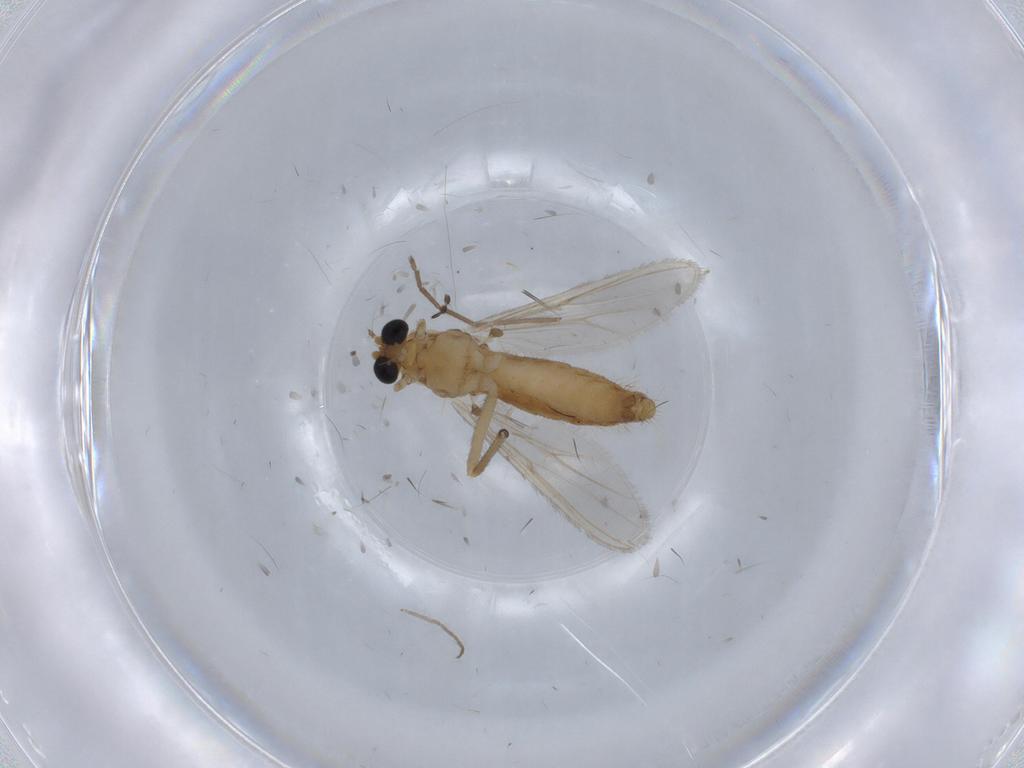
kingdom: Animalia
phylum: Arthropoda
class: Insecta
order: Diptera
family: Chironomidae
